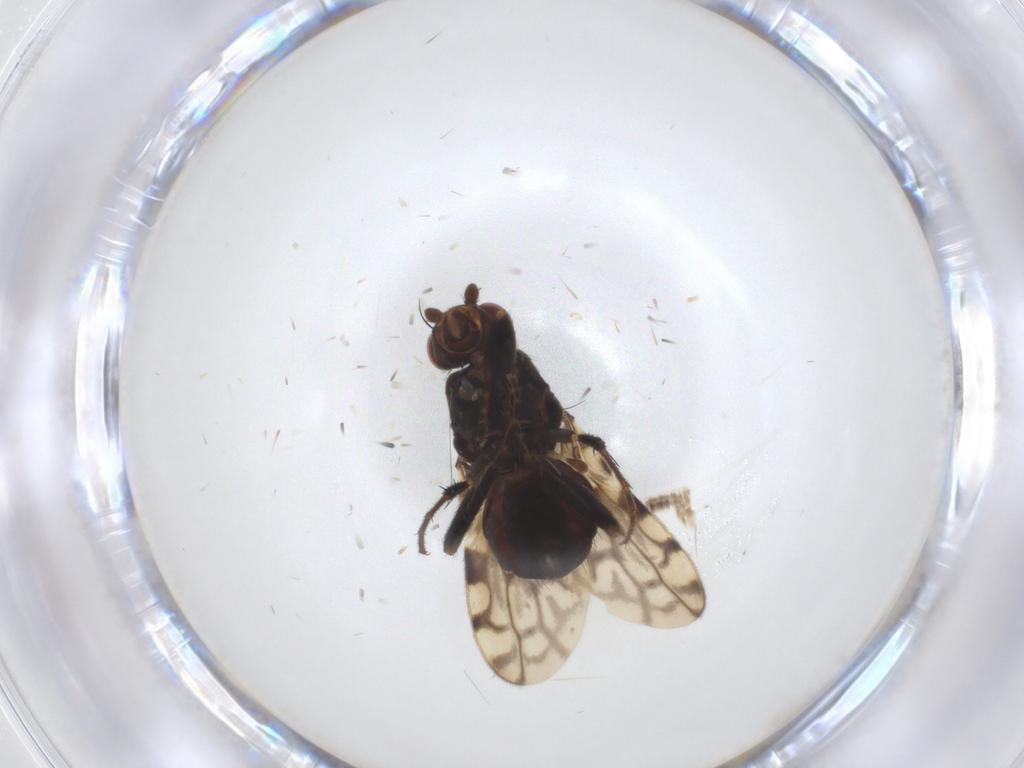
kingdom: Animalia
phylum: Arthropoda
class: Insecta
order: Diptera
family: Sphaeroceridae
